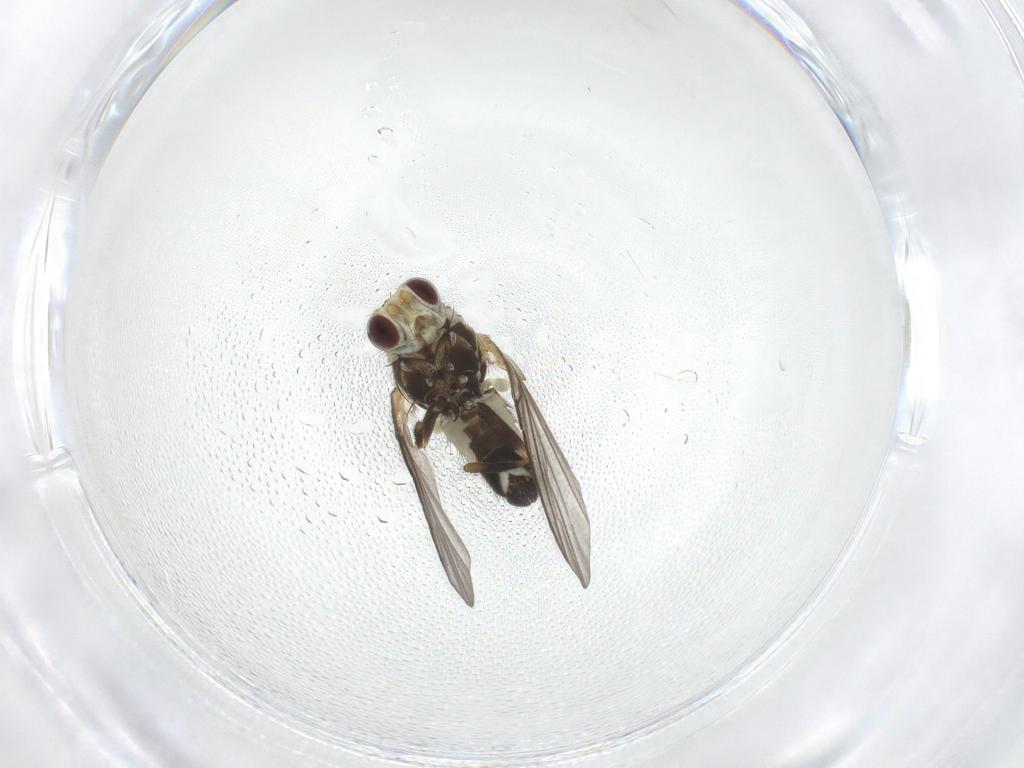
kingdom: Animalia
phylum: Arthropoda
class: Insecta
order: Diptera
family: Agromyzidae
